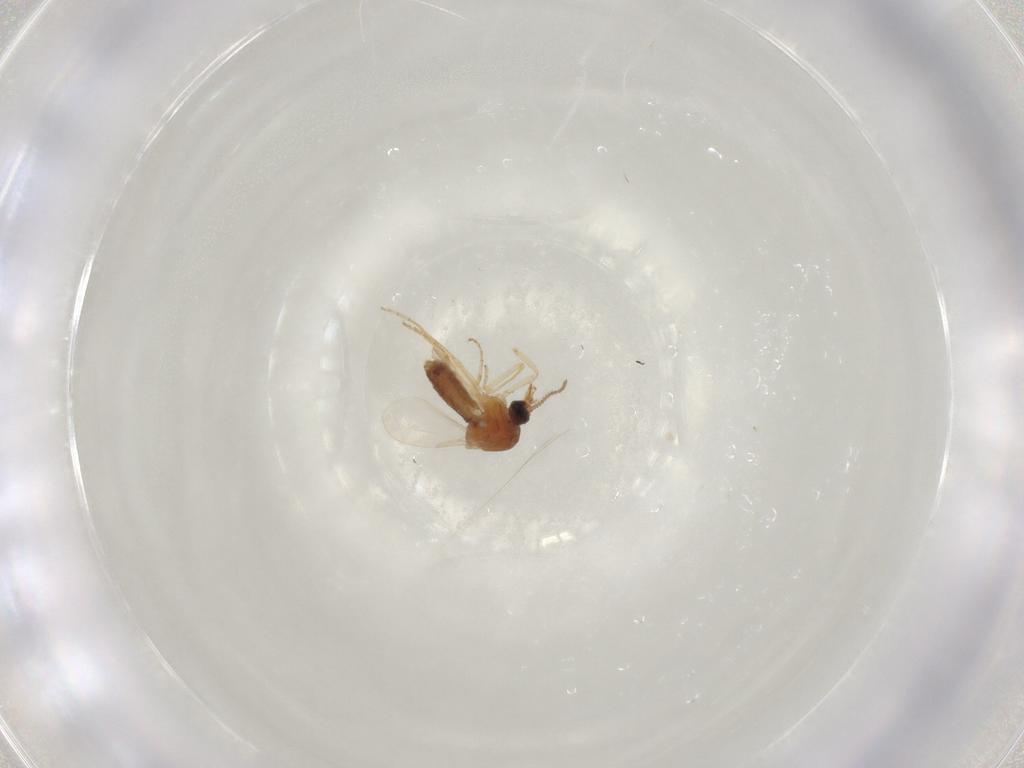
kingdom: Animalia
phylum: Arthropoda
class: Insecta
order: Diptera
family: Ceratopogonidae
